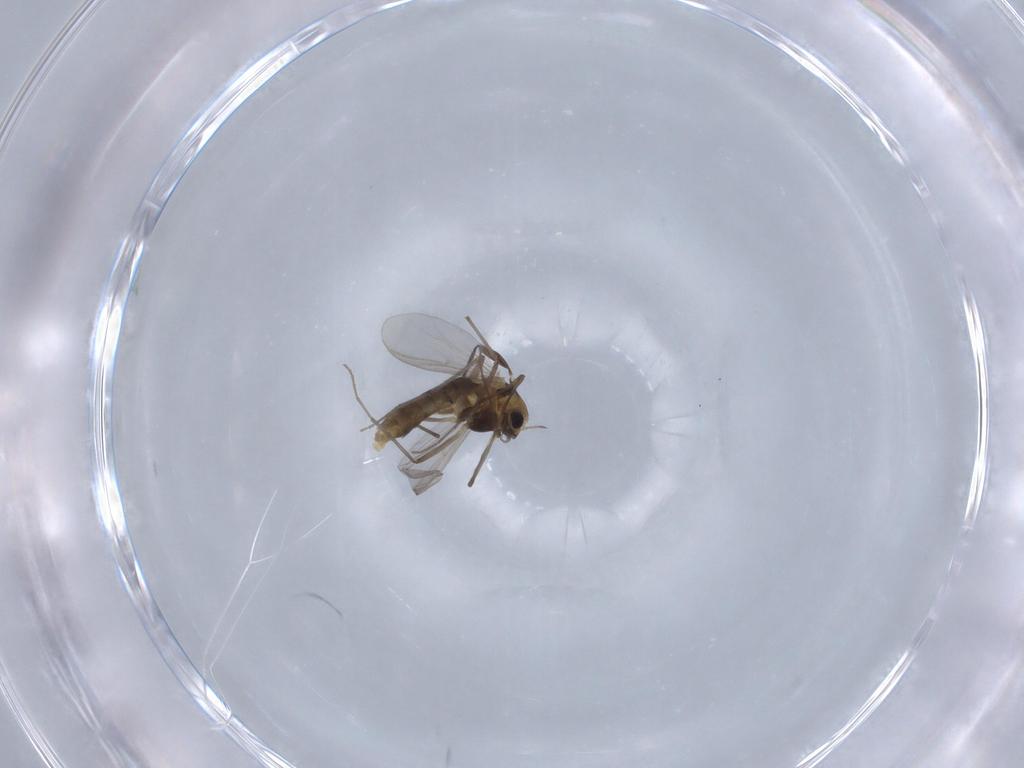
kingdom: Animalia
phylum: Arthropoda
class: Insecta
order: Diptera
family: Chironomidae
